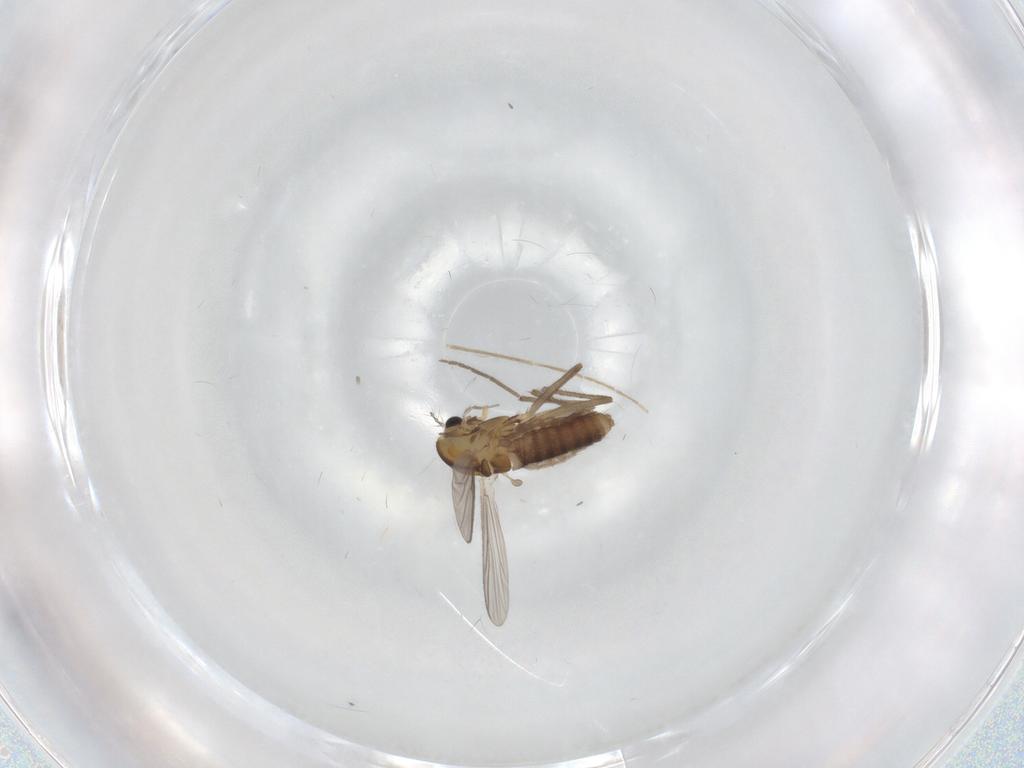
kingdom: Animalia
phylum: Arthropoda
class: Insecta
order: Diptera
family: Chironomidae
